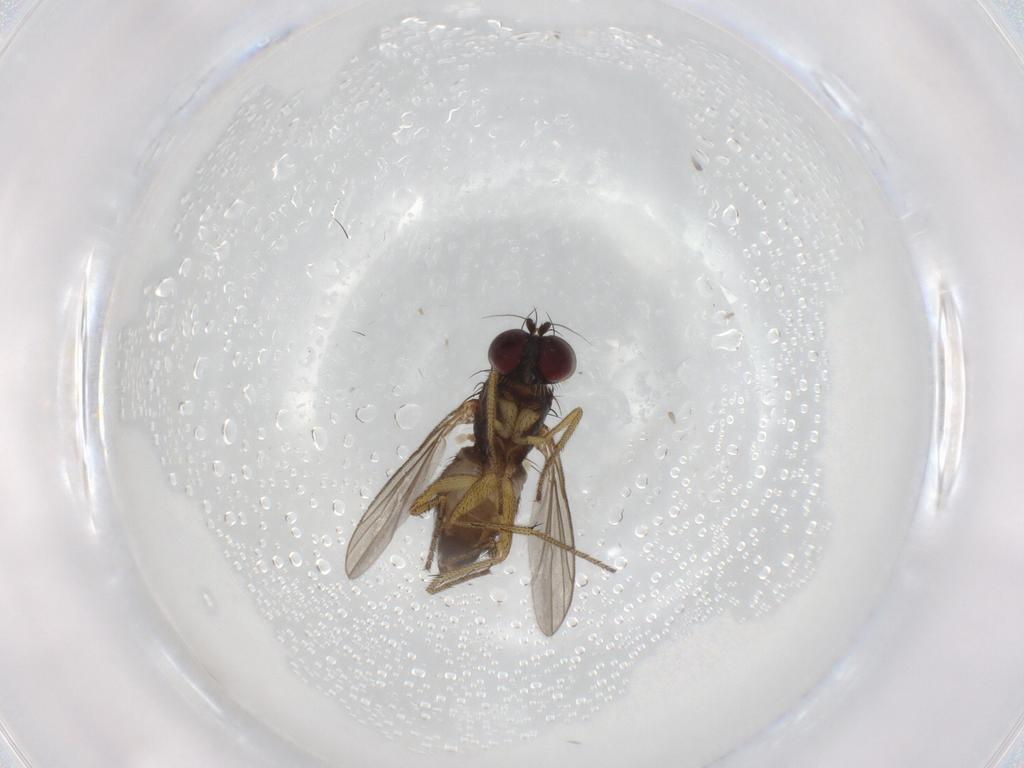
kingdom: Animalia
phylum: Arthropoda
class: Insecta
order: Diptera
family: Dolichopodidae
